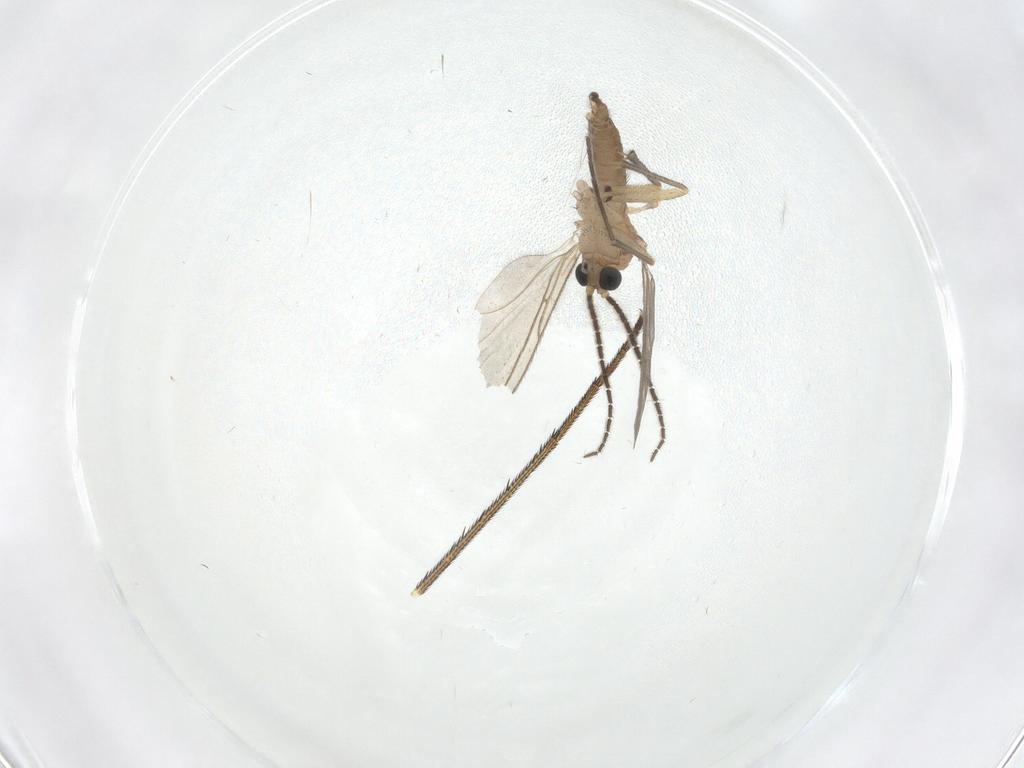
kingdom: Animalia
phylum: Arthropoda
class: Insecta
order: Diptera
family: Sciaridae
